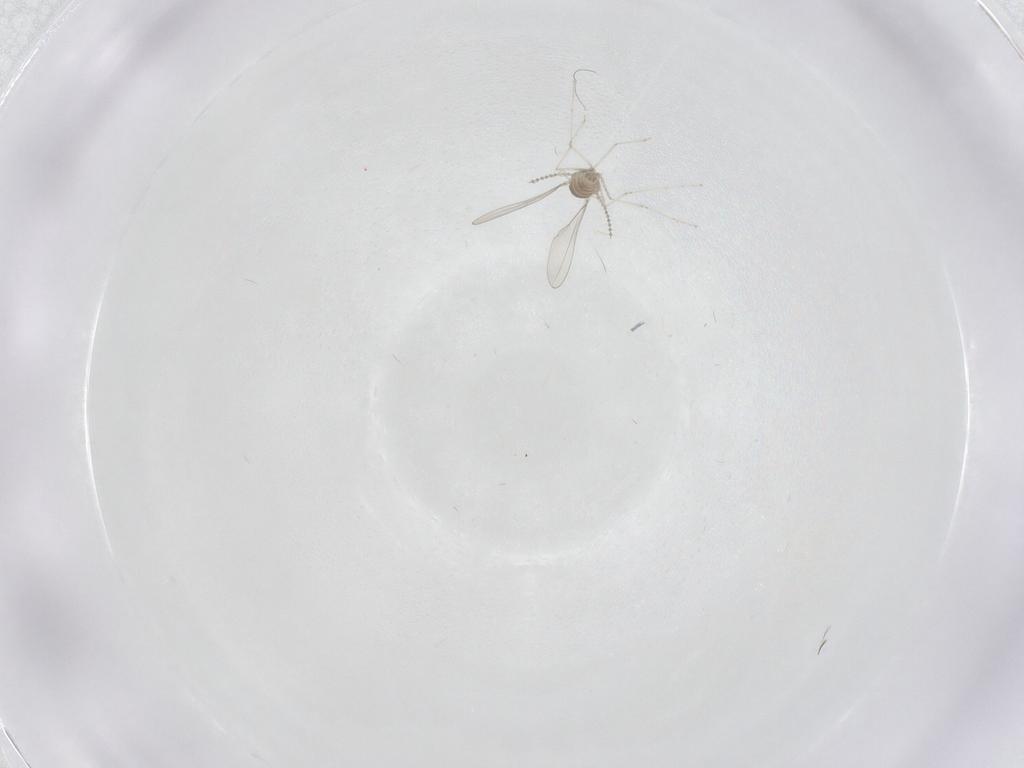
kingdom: Animalia
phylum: Arthropoda
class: Insecta
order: Diptera
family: Cecidomyiidae
